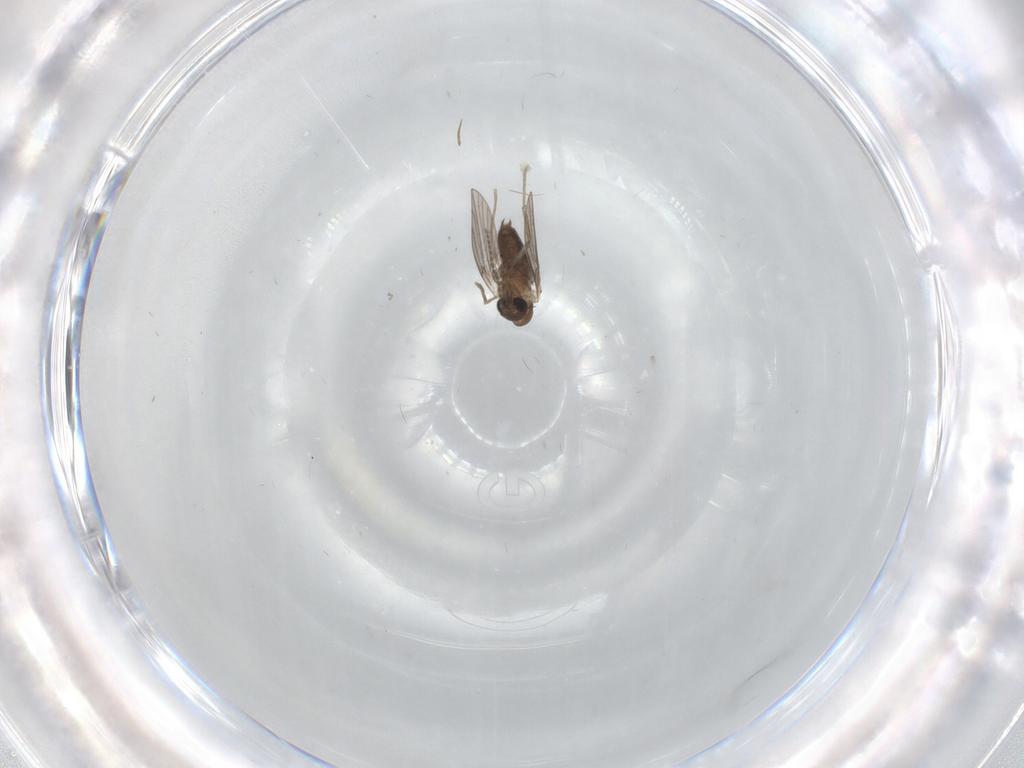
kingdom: Animalia
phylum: Arthropoda
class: Insecta
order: Diptera
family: Psychodidae
